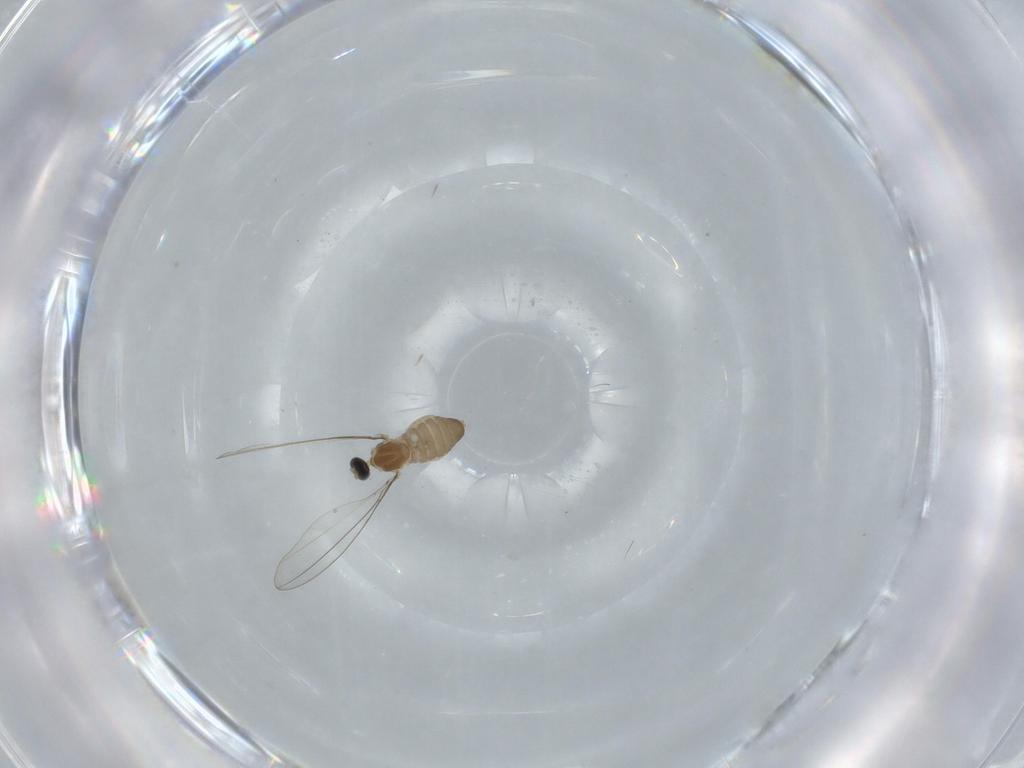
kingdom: Animalia
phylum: Arthropoda
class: Insecta
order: Diptera
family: Cecidomyiidae
